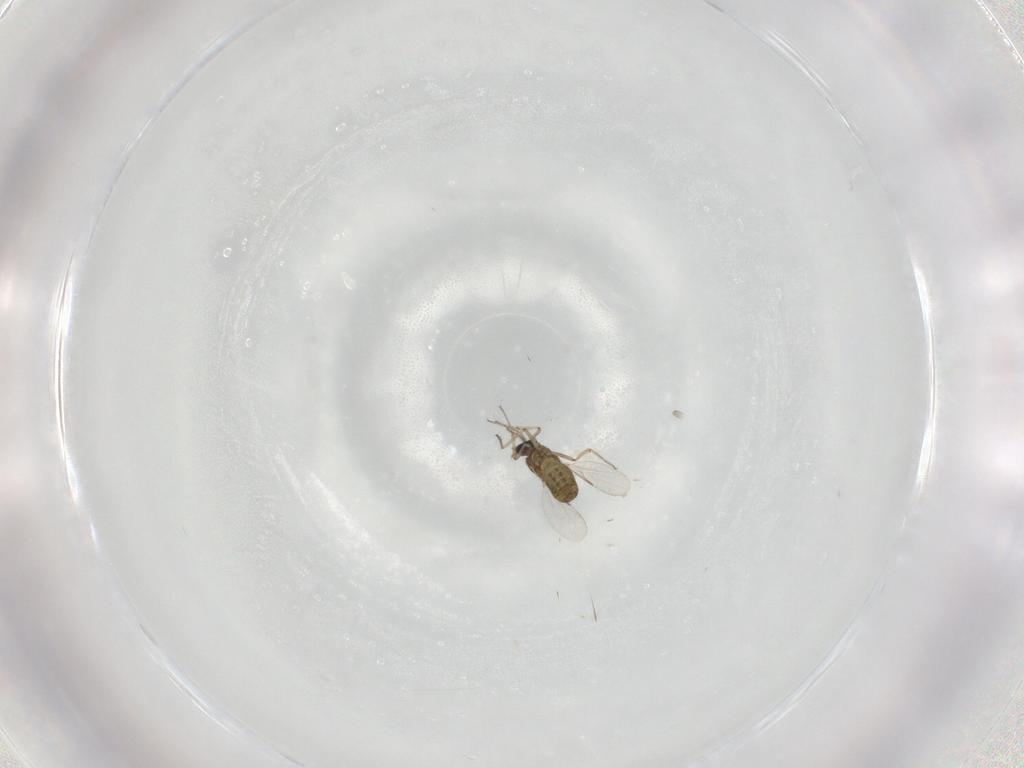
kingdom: Animalia
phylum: Arthropoda
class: Insecta
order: Diptera
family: Ceratopogonidae
